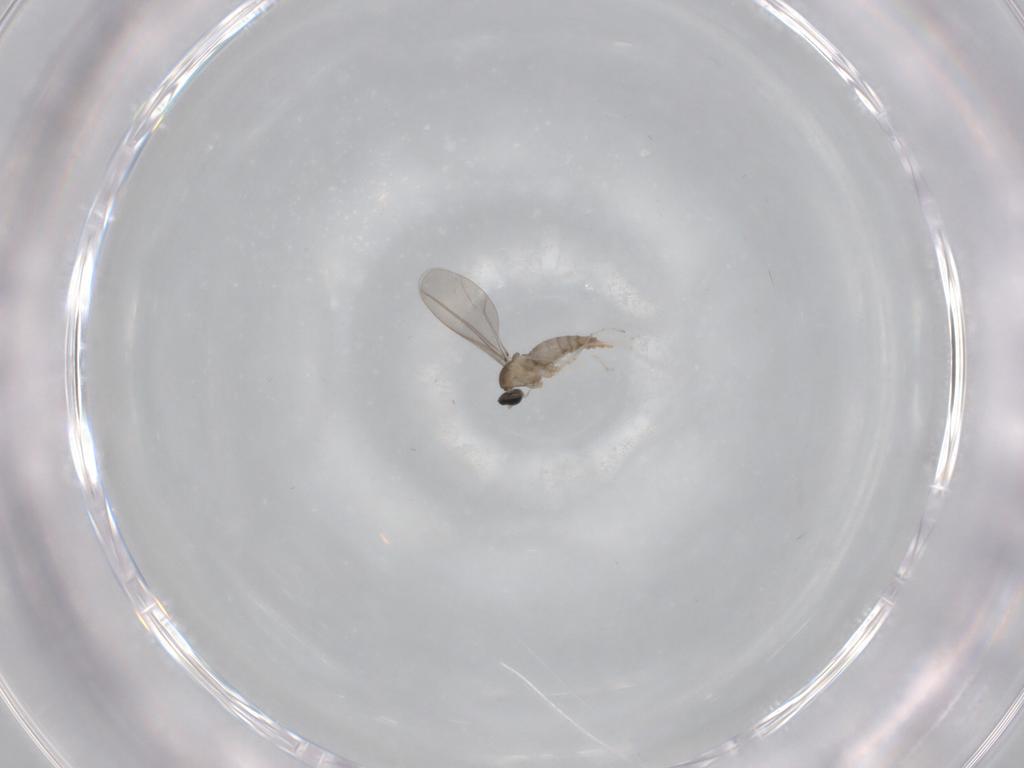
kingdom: Animalia
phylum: Arthropoda
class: Insecta
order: Diptera
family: Cecidomyiidae
